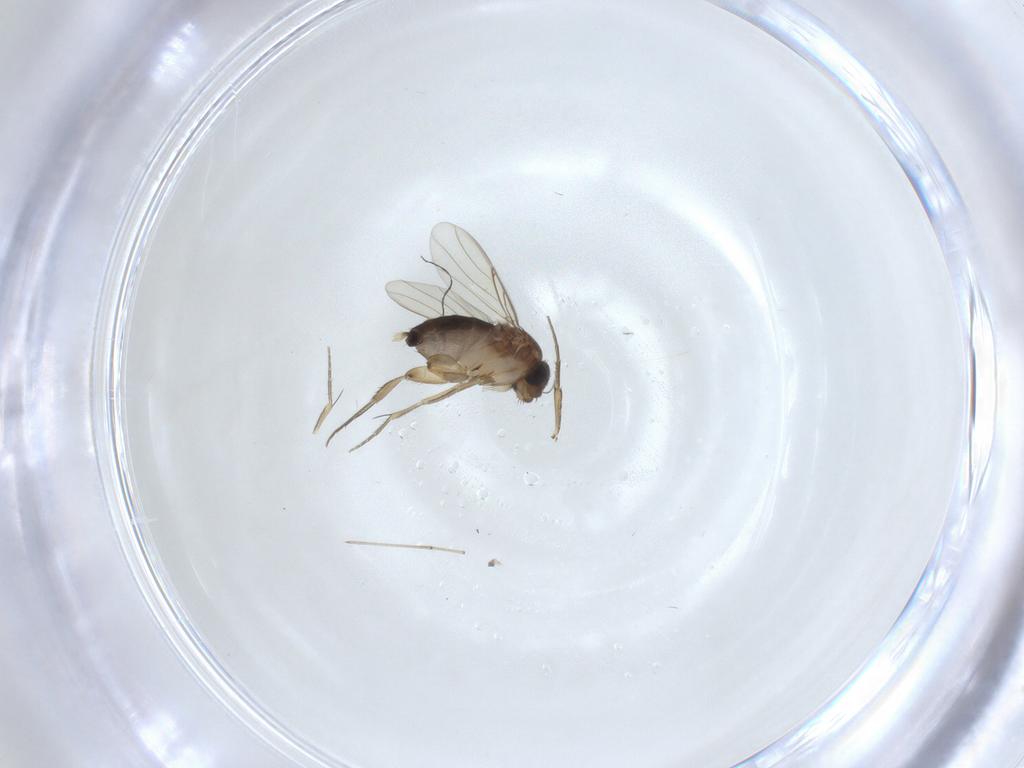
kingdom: Animalia
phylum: Arthropoda
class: Insecta
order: Diptera
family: Phoridae
